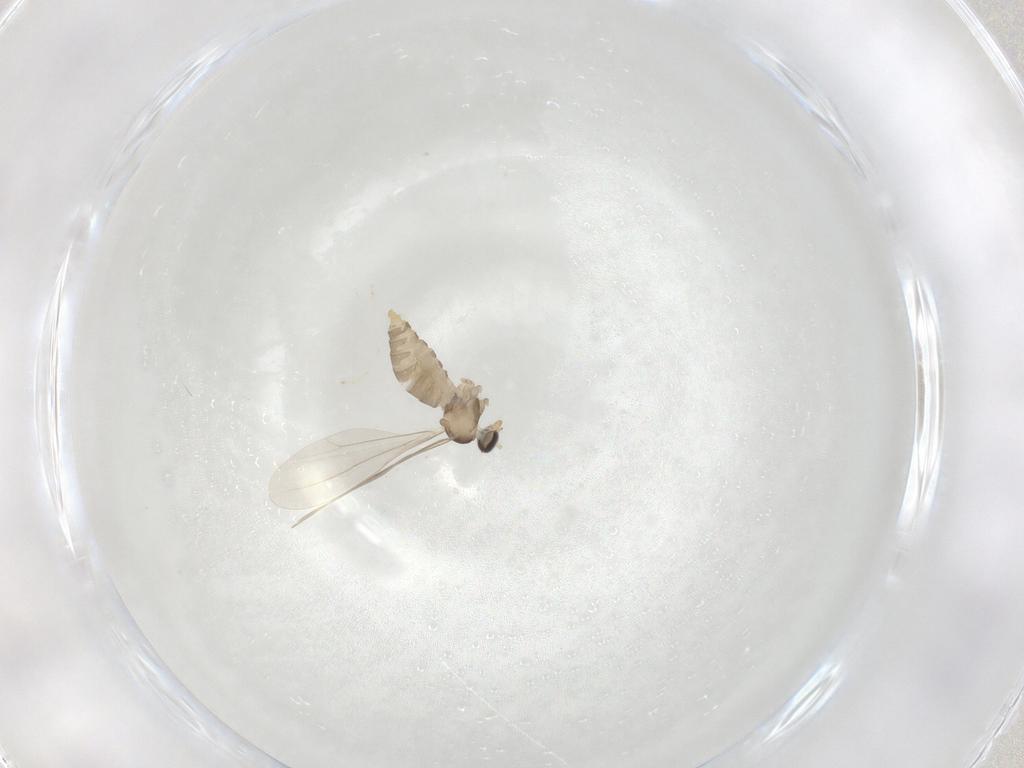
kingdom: Animalia
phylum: Arthropoda
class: Insecta
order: Diptera
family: Cecidomyiidae
